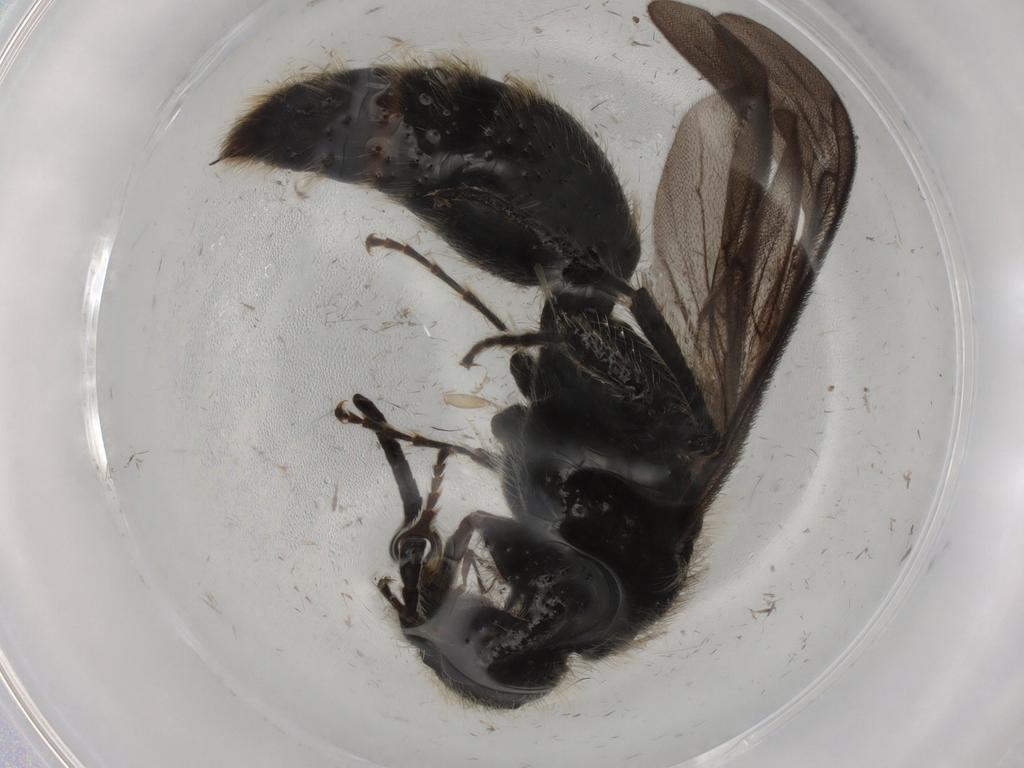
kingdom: Animalia
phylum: Arthropoda
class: Insecta
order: Hymenoptera
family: Mutillidae
